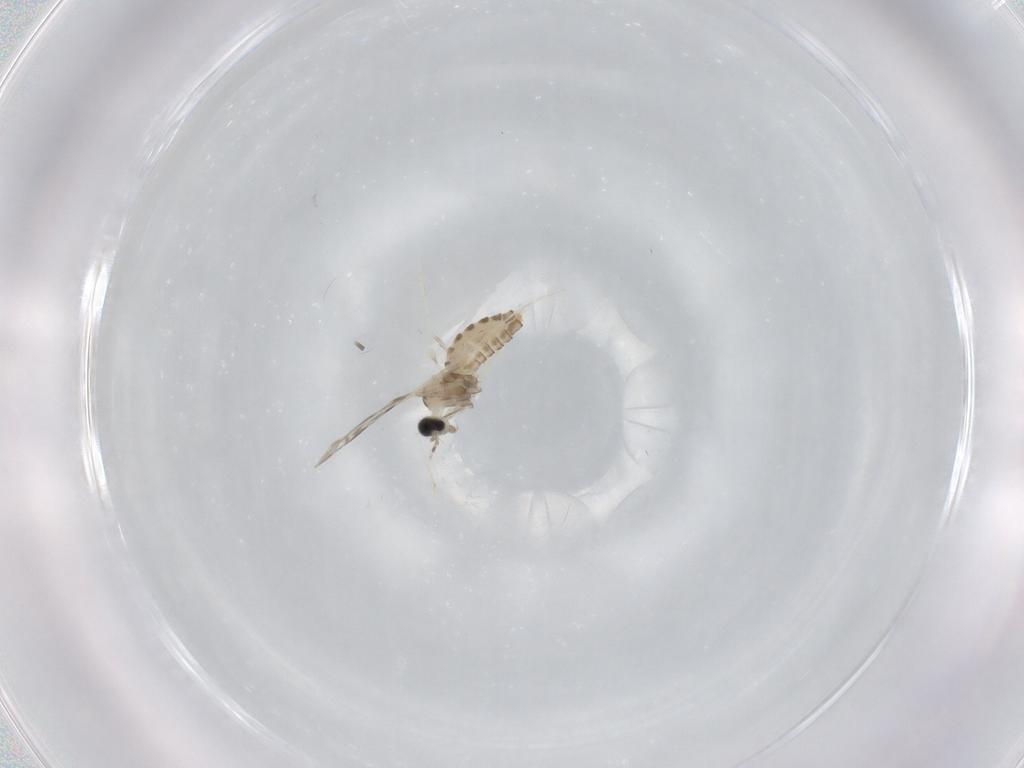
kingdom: Animalia
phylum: Arthropoda
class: Insecta
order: Diptera
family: Cecidomyiidae
